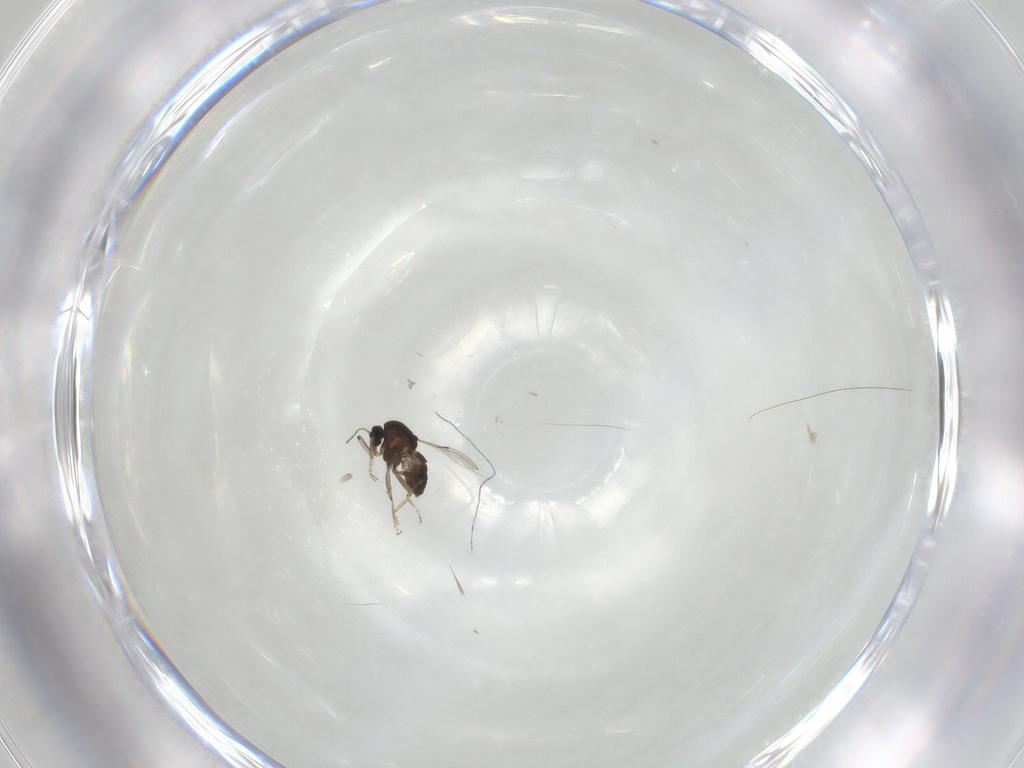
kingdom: Animalia
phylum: Arthropoda
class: Insecta
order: Diptera
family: Ceratopogonidae
